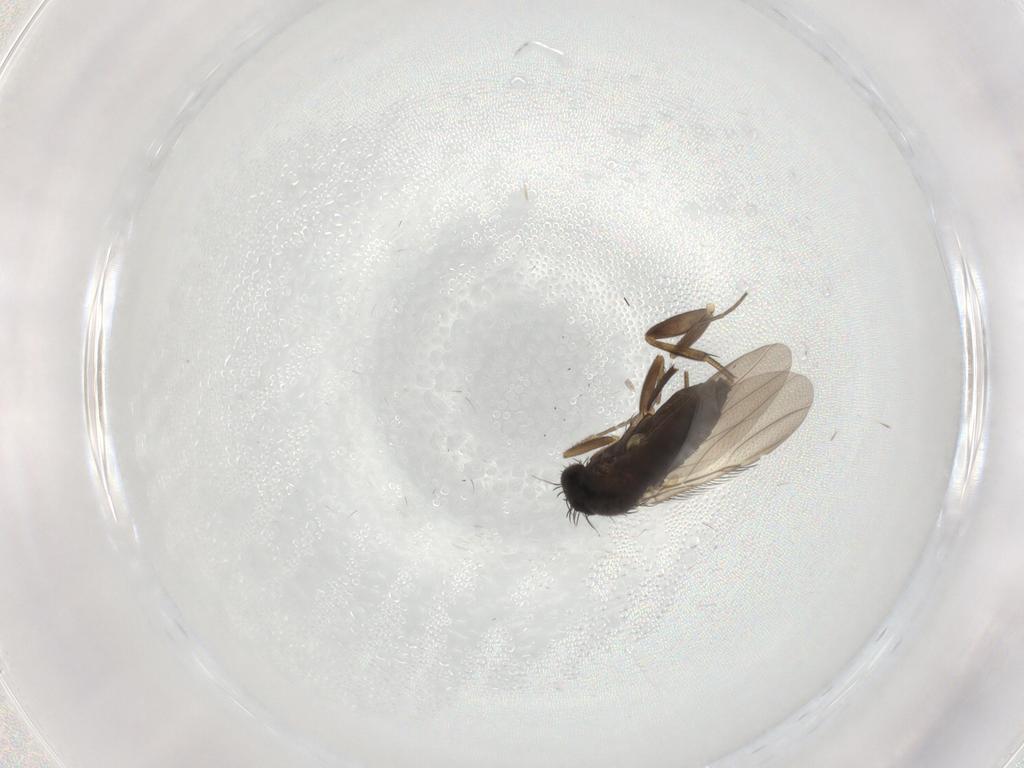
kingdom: Animalia
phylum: Arthropoda
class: Insecta
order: Diptera
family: Phoridae
